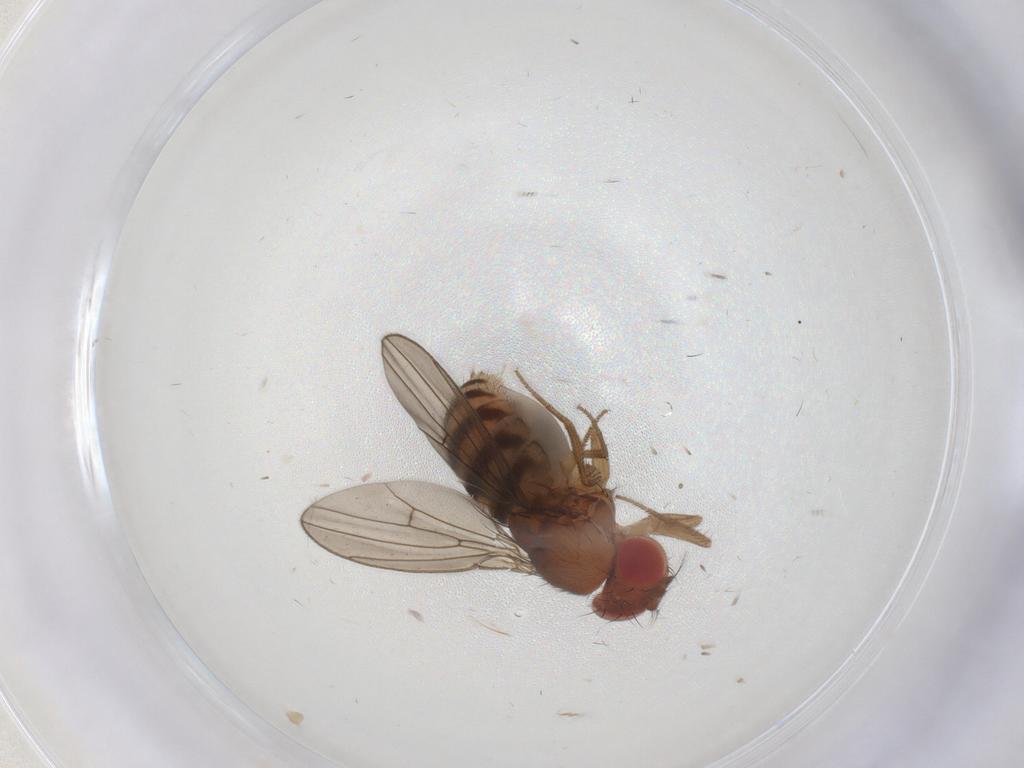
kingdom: Animalia
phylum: Arthropoda
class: Insecta
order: Diptera
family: Drosophilidae
